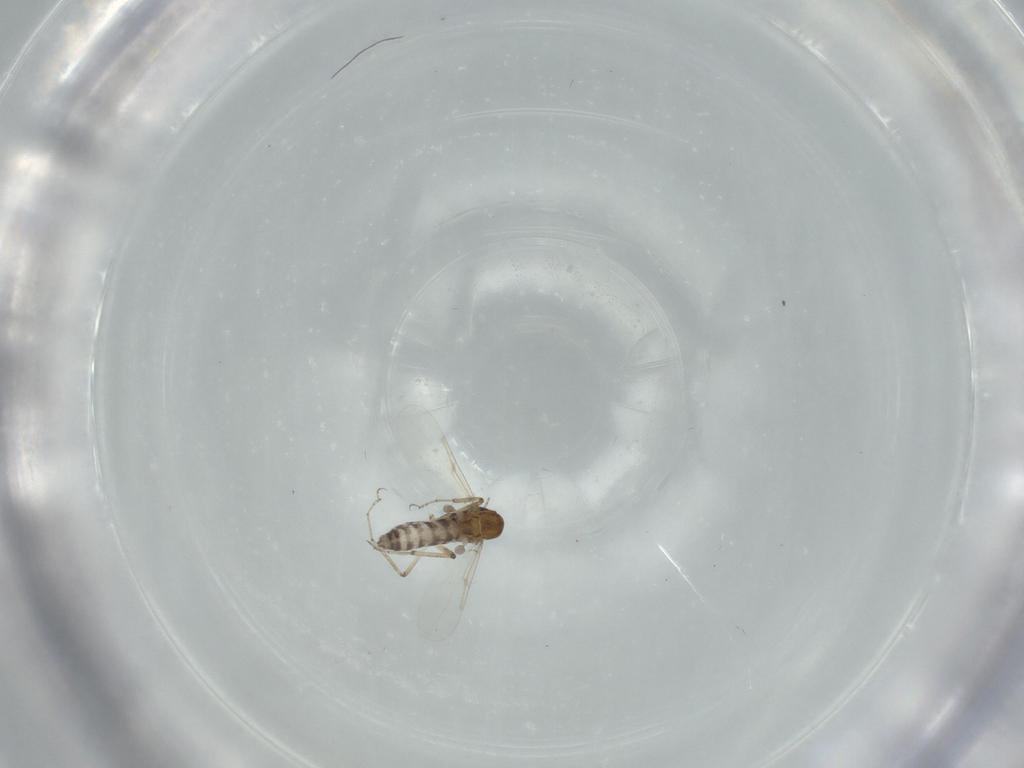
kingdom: Animalia
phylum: Arthropoda
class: Insecta
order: Diptera
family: Ceratopogonidae
